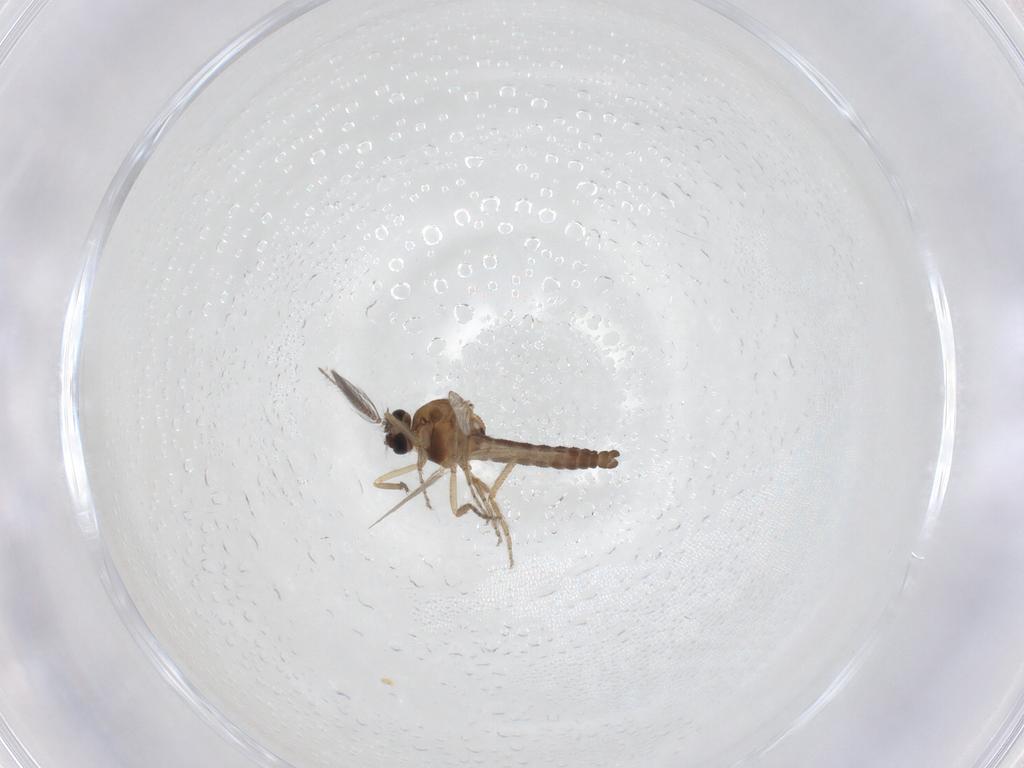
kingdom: Animalia
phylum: Arthropoda
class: Insecta
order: Diptera
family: Ceratopogonidae
